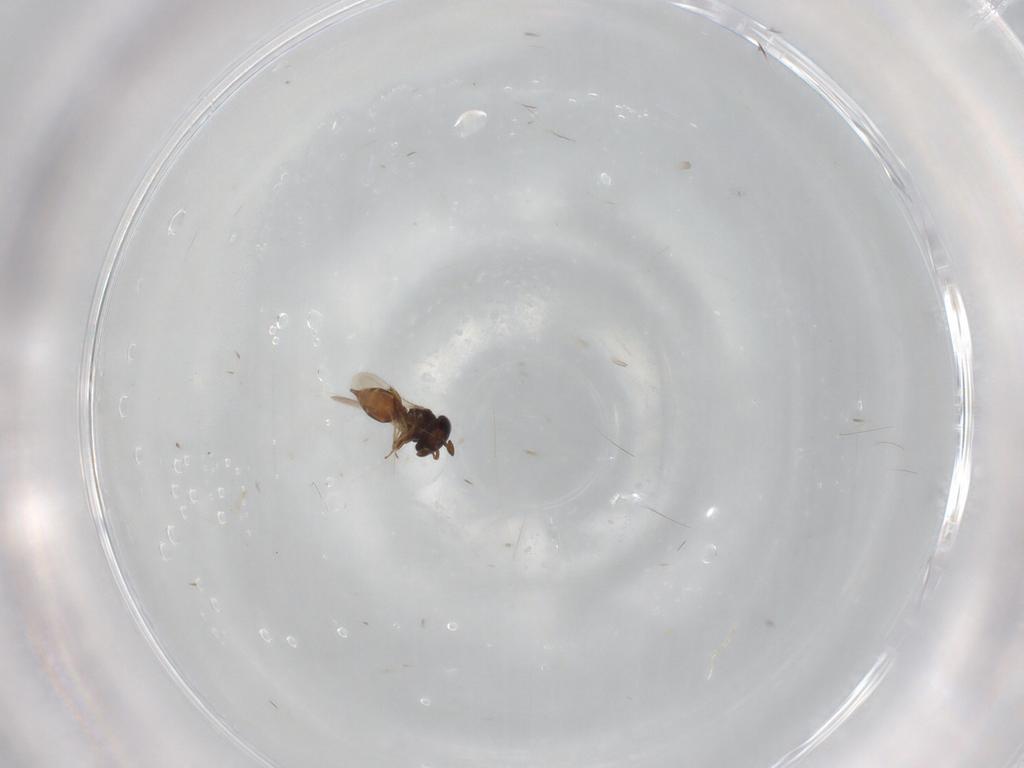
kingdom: Animalia
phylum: Arthropoda
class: Insecta
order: Hymenoptera
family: Scelionidae
